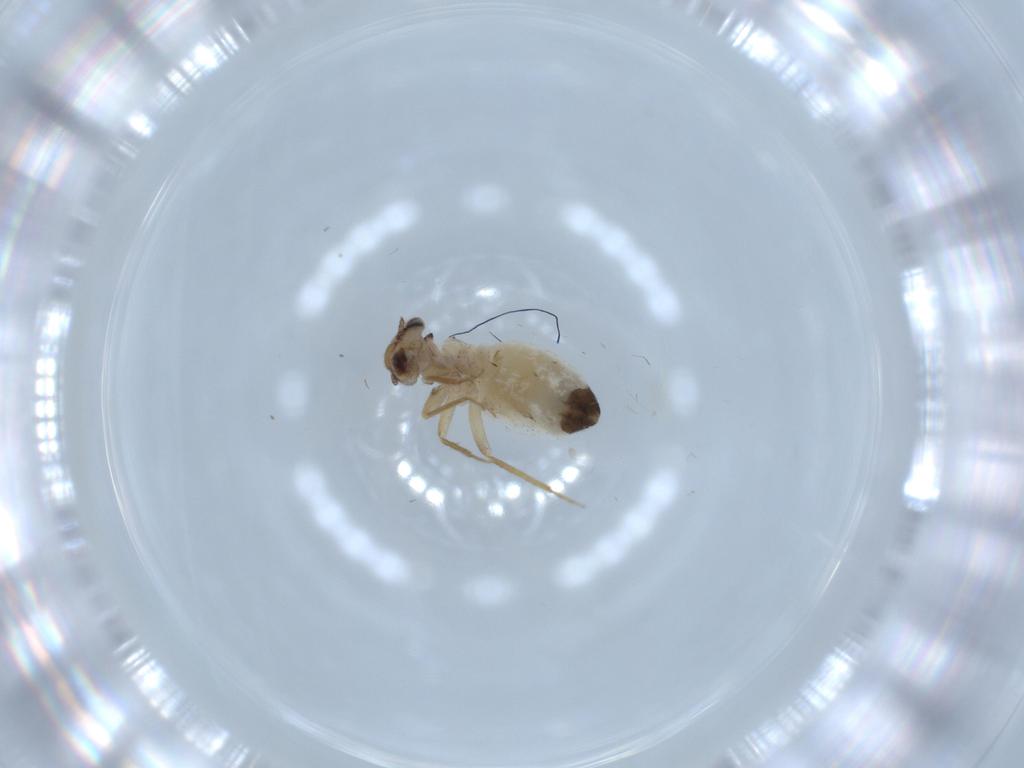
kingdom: Animalia
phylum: Arthropoda
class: Insecta
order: Psocodea
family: Liposcelididae
